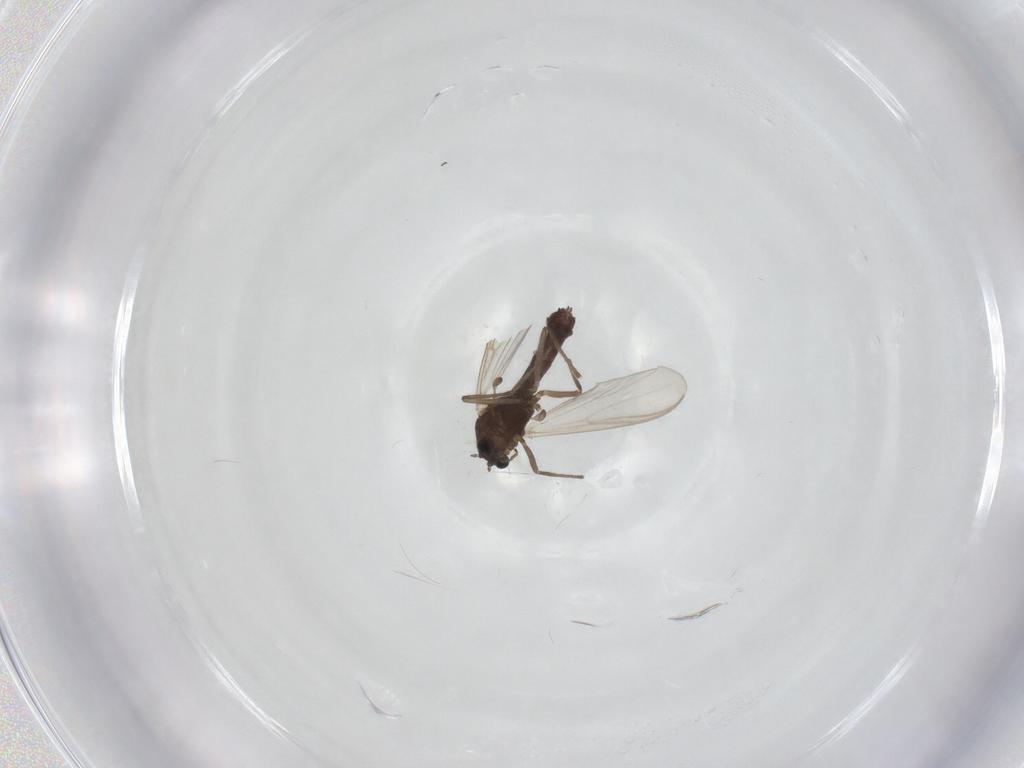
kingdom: Animalia
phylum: Arthropoda
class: Insecta
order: Diptera
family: Chironomidae
